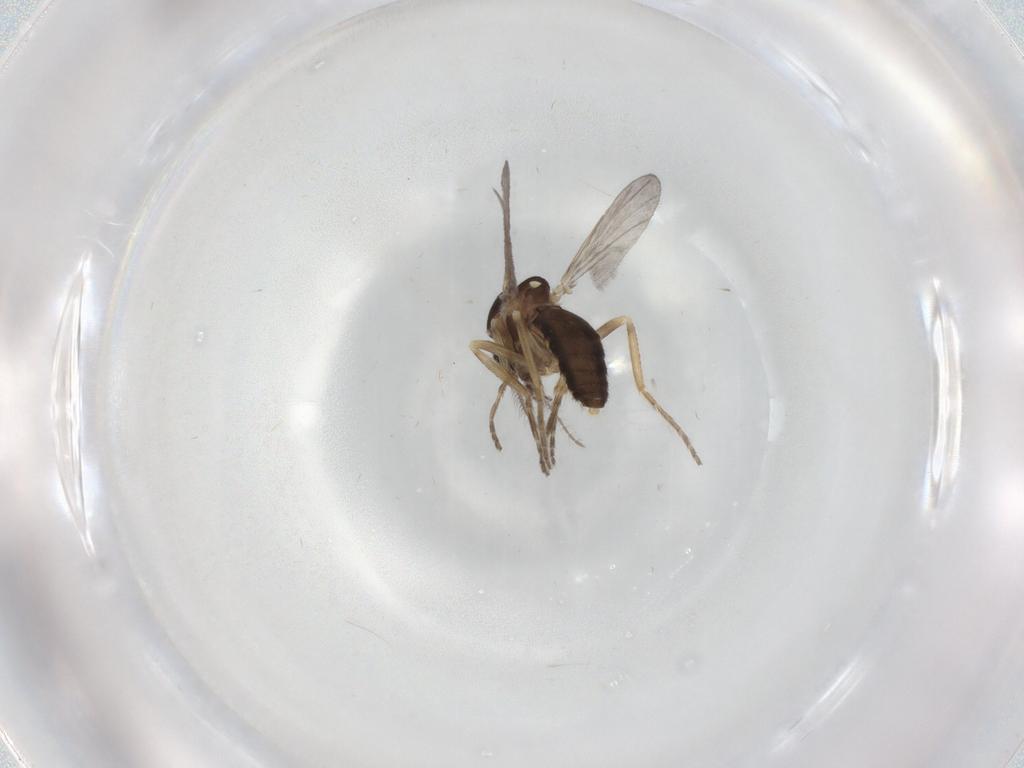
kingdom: Animalia
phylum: Arthropoda
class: Insecta
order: Diptera
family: Ceratopogonidae
